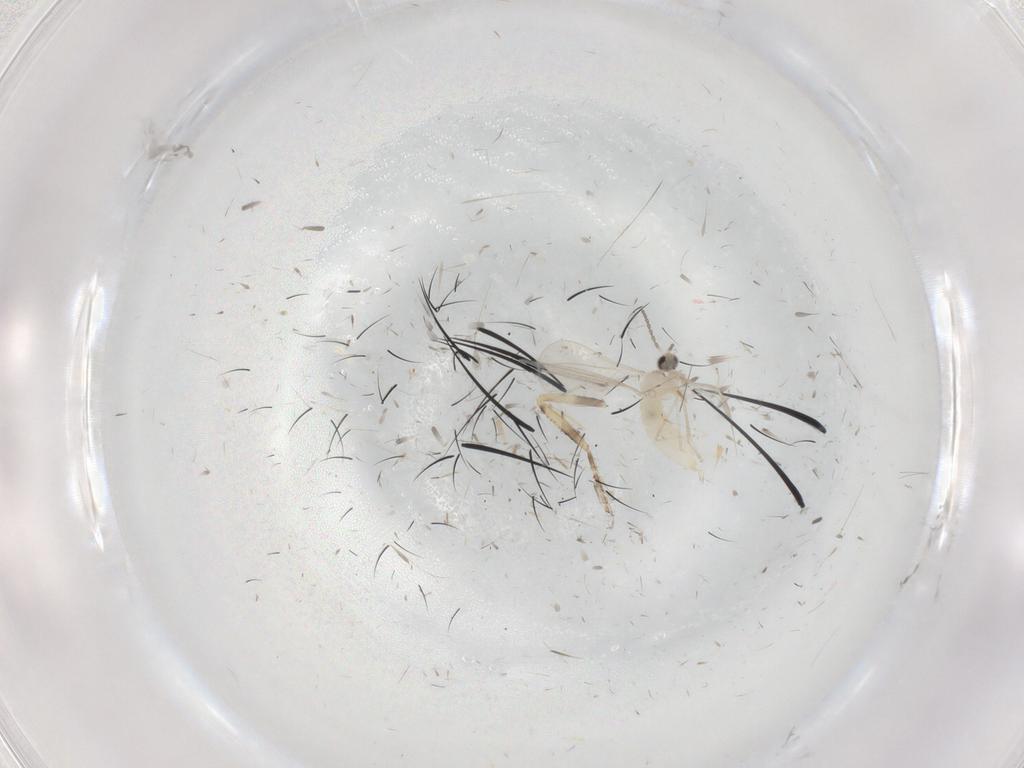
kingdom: Animalia
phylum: Arthropoda
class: Insecta
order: Diptera
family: Cecidomyiidae
